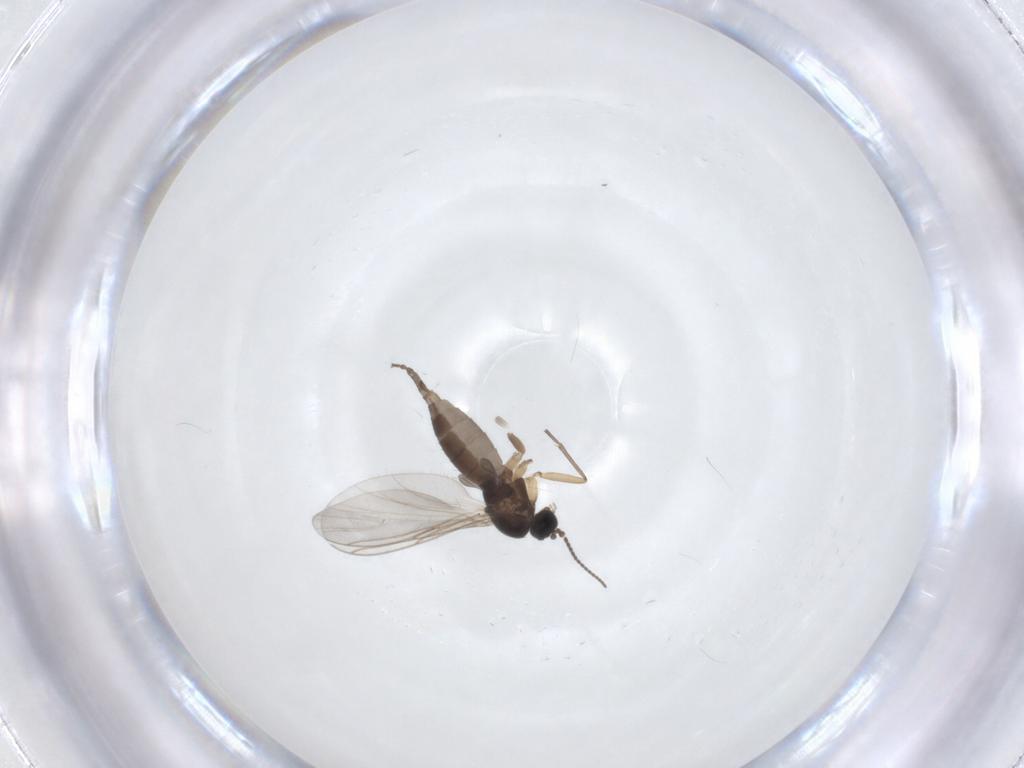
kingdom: Animalia
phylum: Arthropoda
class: Insecta
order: Diptera
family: Sciaridae
